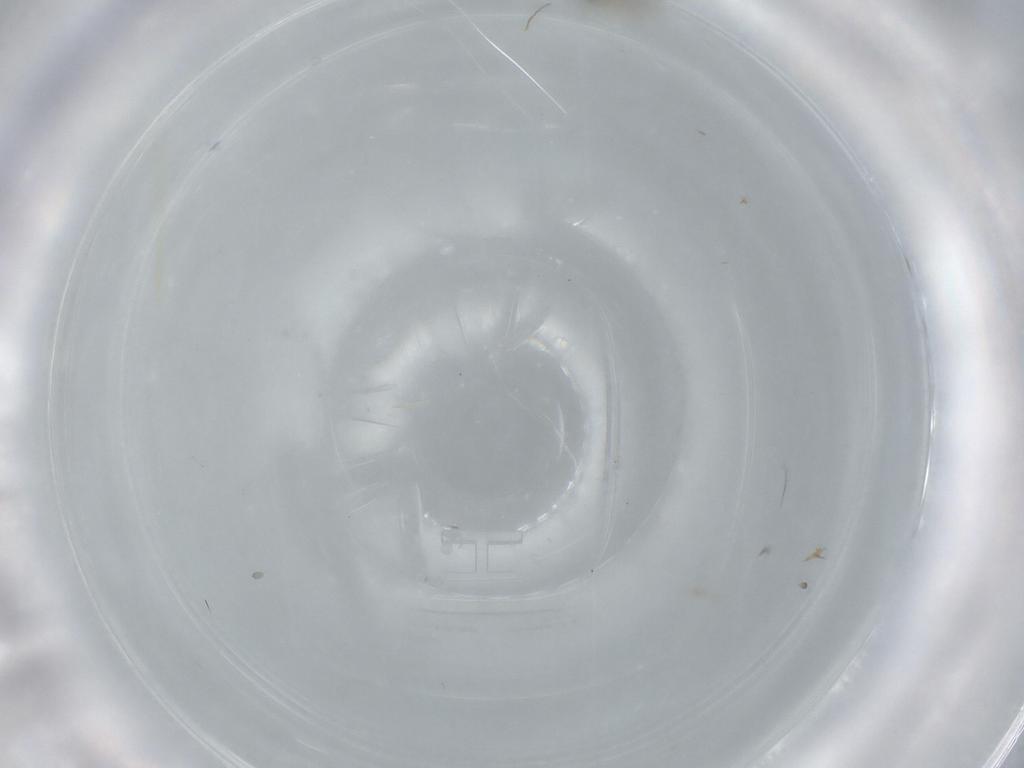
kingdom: Animalia
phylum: Arthropoda
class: Insecta
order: Diptera
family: Cecidomyiidae
